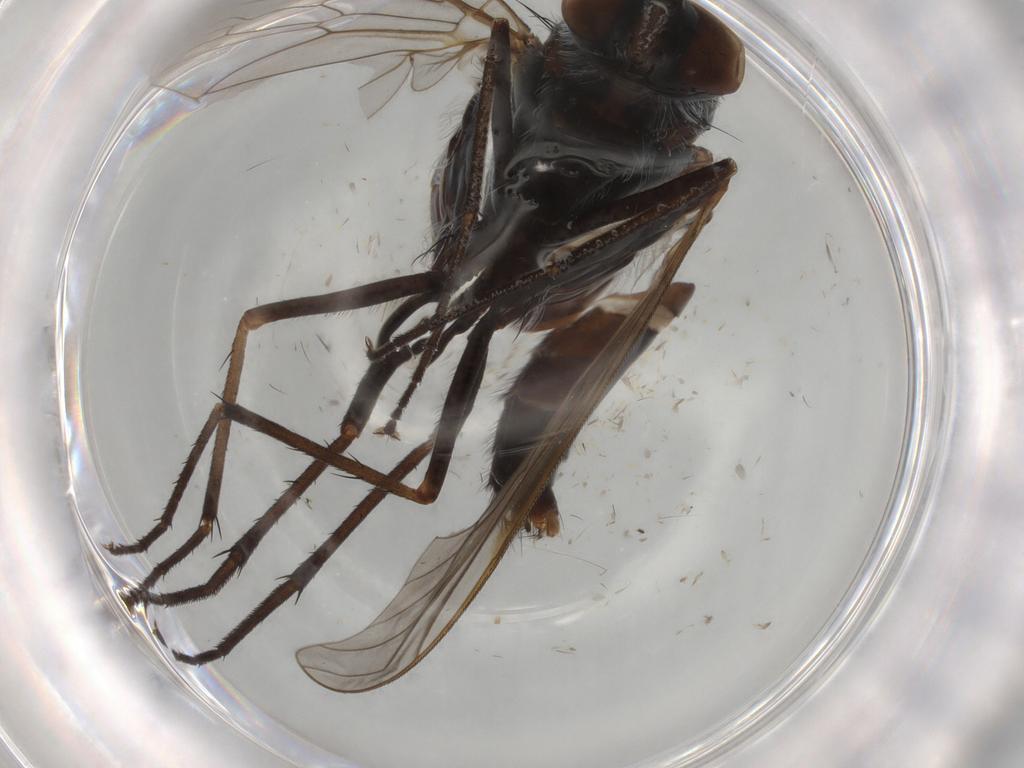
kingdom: Animalia
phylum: Arthropoda
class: Insecta
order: Diptera
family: Therevidae
